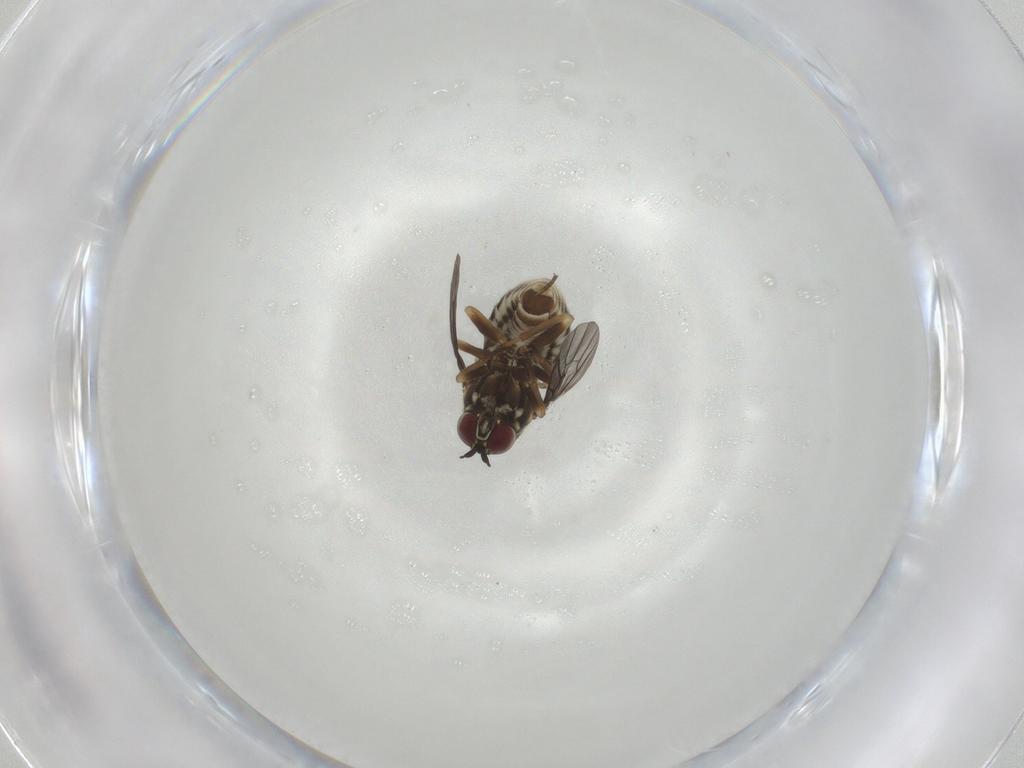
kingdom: Animalia
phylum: Arthropoda
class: Insecta
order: Diptera
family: Bombyliidae
